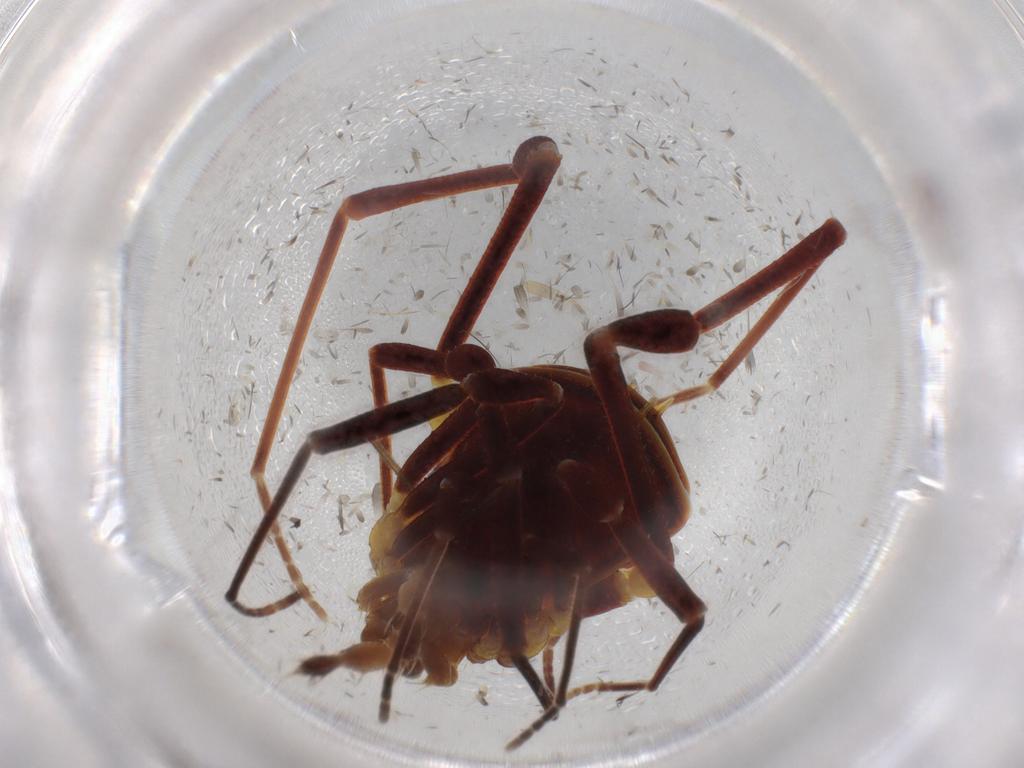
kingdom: Animalia
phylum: Arthropoda
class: Arachnida
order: Opiliones
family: Zalmoxidae
